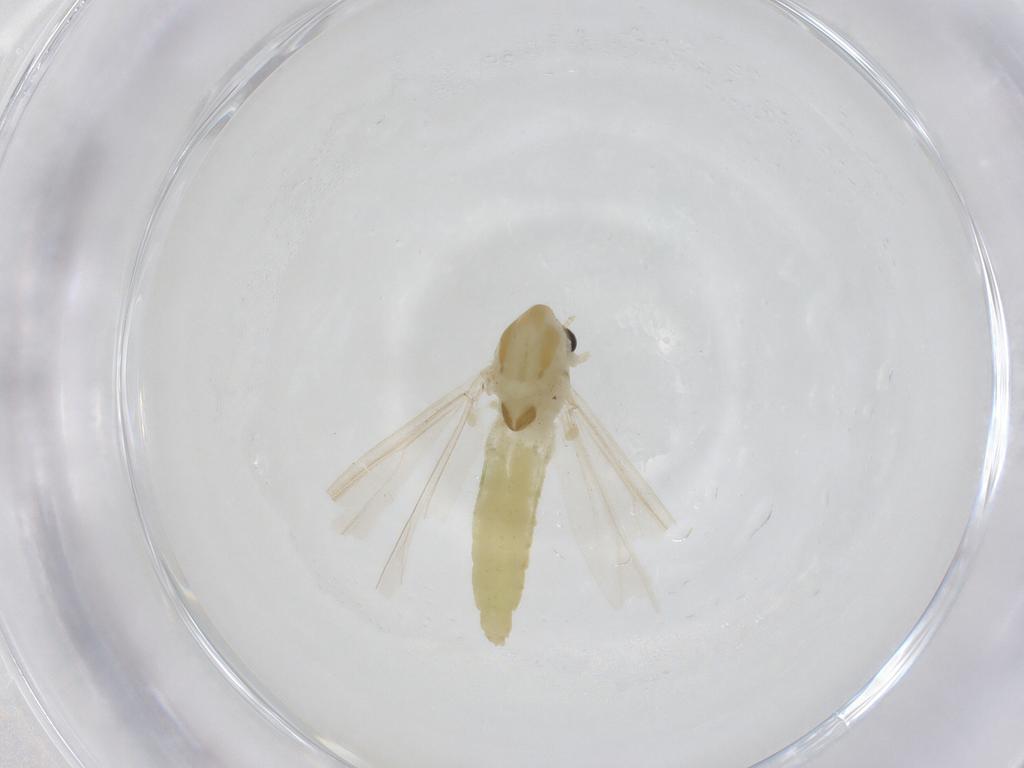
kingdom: Animalia
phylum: Arthropoda
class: Insecta
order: Diptera
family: Chironomidae
